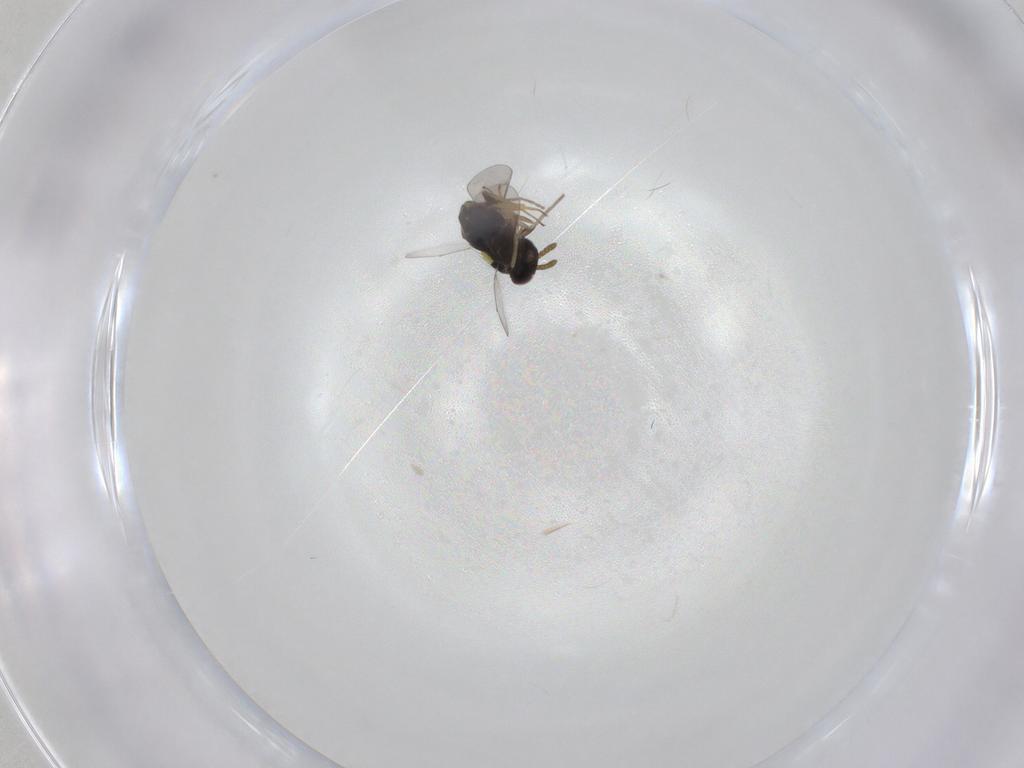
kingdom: Animalia
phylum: Arthropoda
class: Insecta
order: Hymenoptera
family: Aphelinidae
